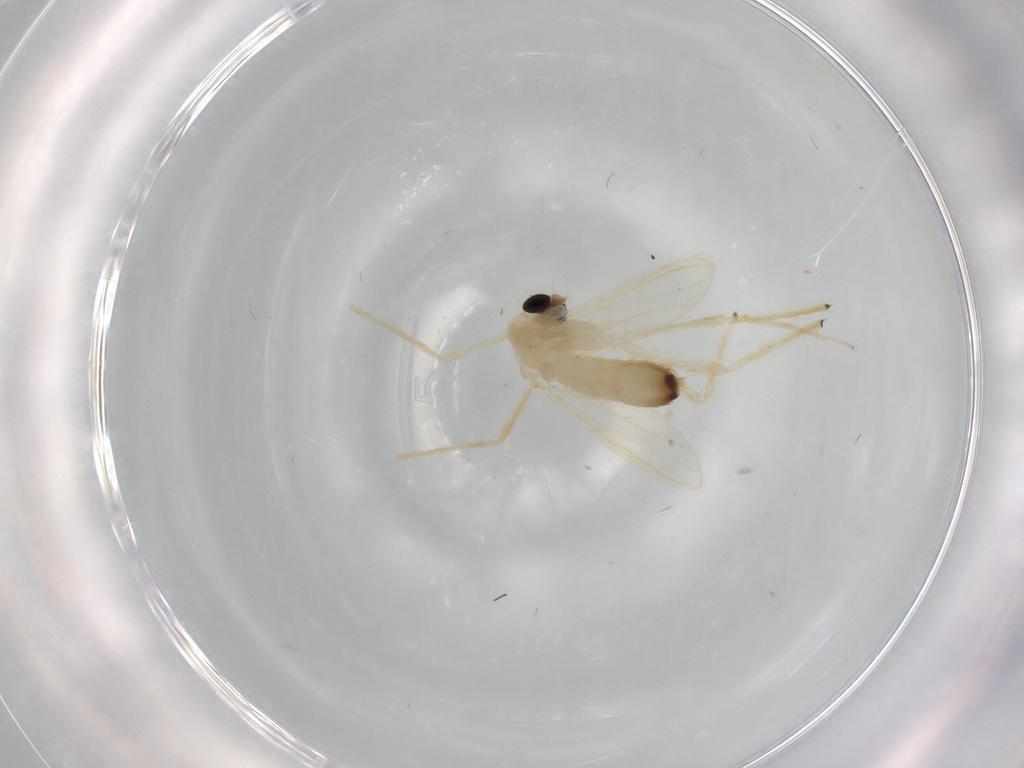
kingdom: Animalia
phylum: Arthropoda
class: Insecta
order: Diptera
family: Chironomidae
